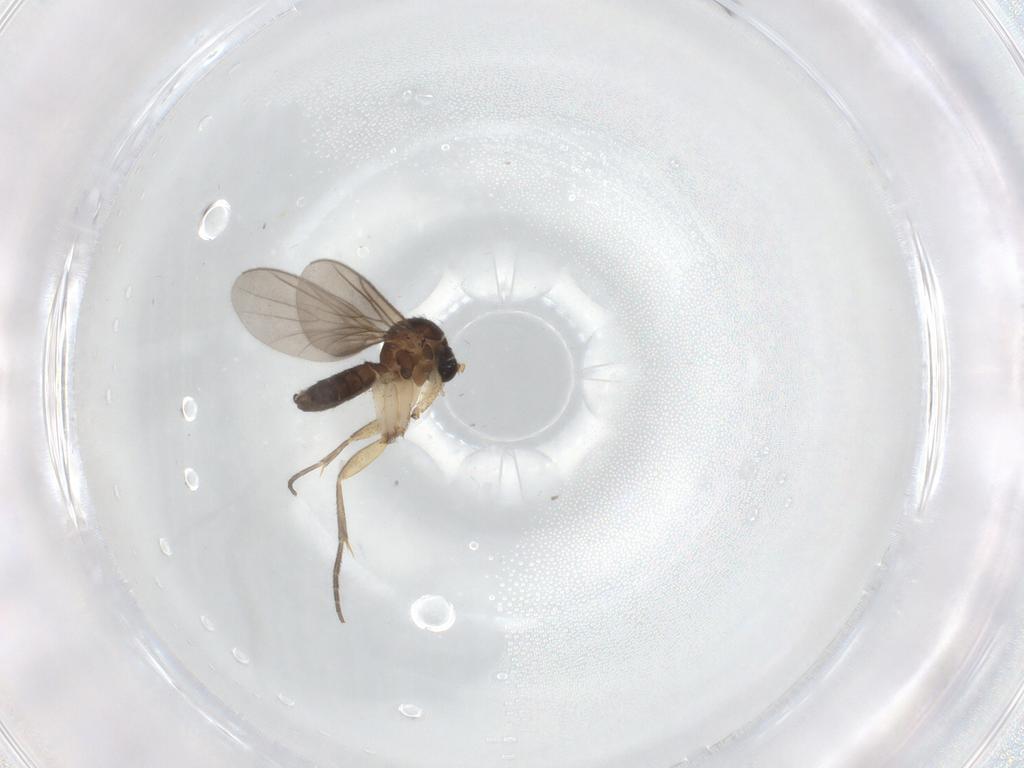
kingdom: Animalia
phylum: Arthropoda
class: Insecta
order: Diptera
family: Mycetophilidae
